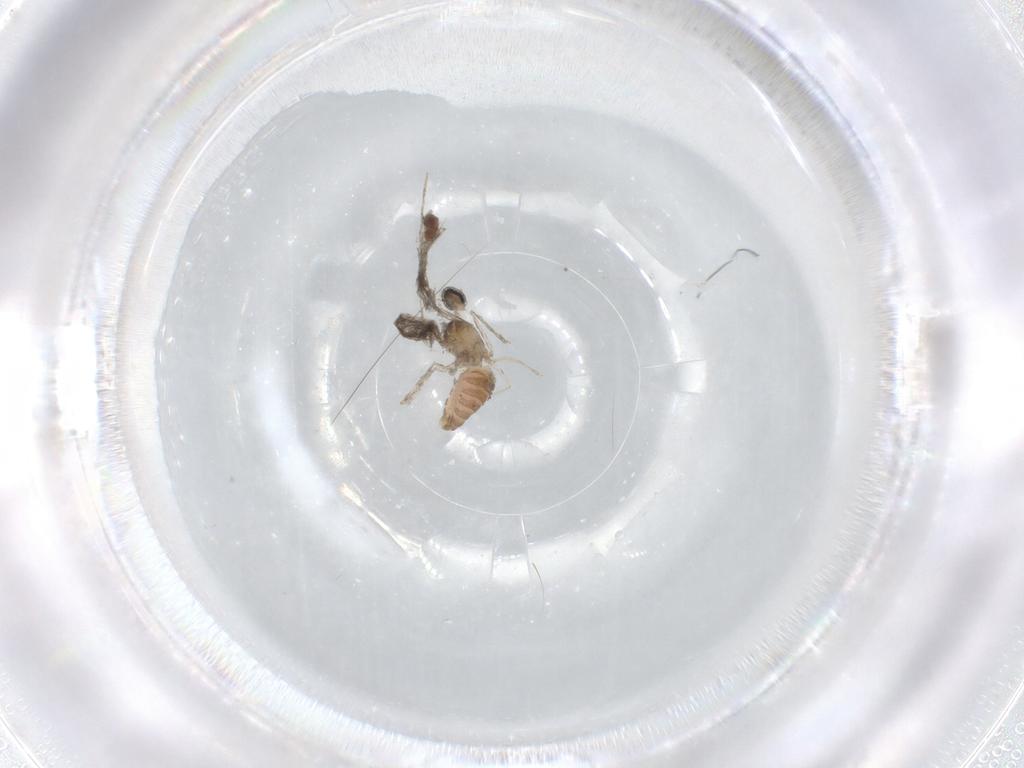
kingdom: Animalia
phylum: Arthropoda
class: Insecta
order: Diptera
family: Cecidomyiidae
